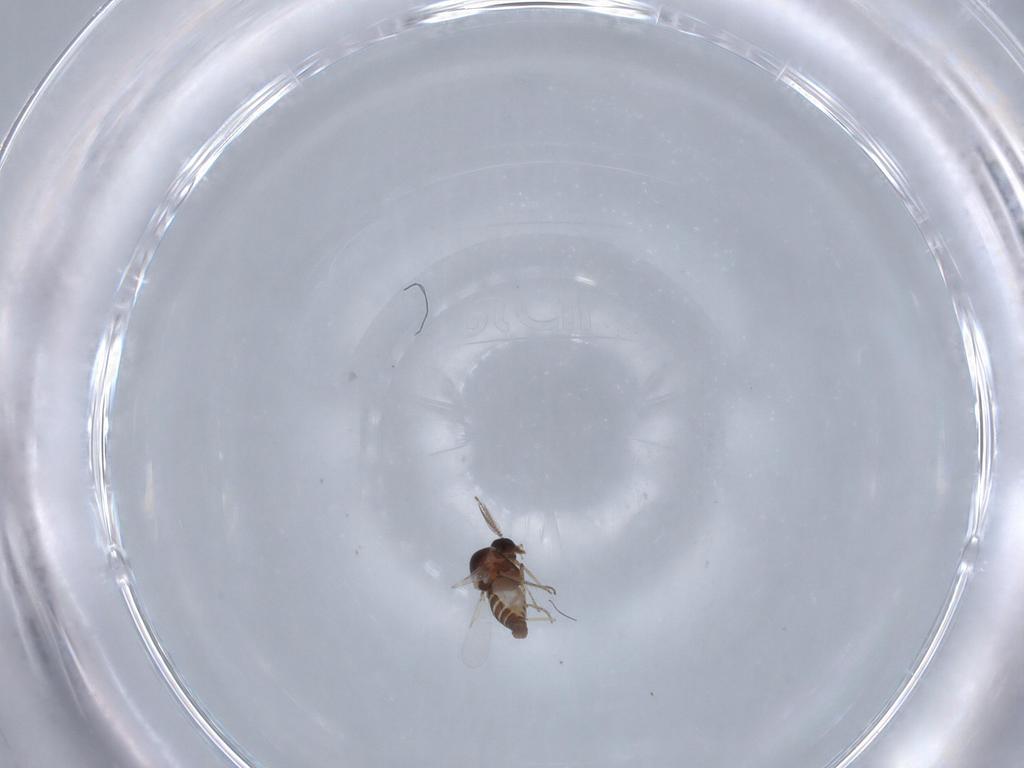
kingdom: Animalia
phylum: Arthropoda
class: Insecta
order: Diptera
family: Ceratopogonidae
